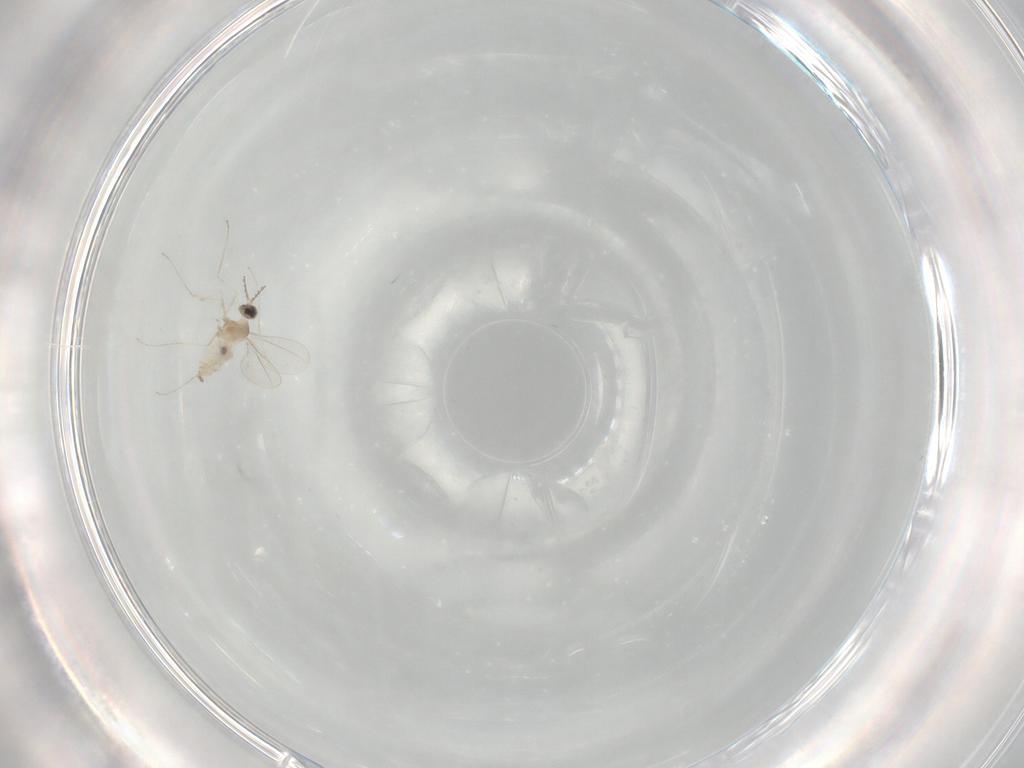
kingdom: Animalia
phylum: Arthropoda
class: Insecta
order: Diptera
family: Cecidomyiidae
